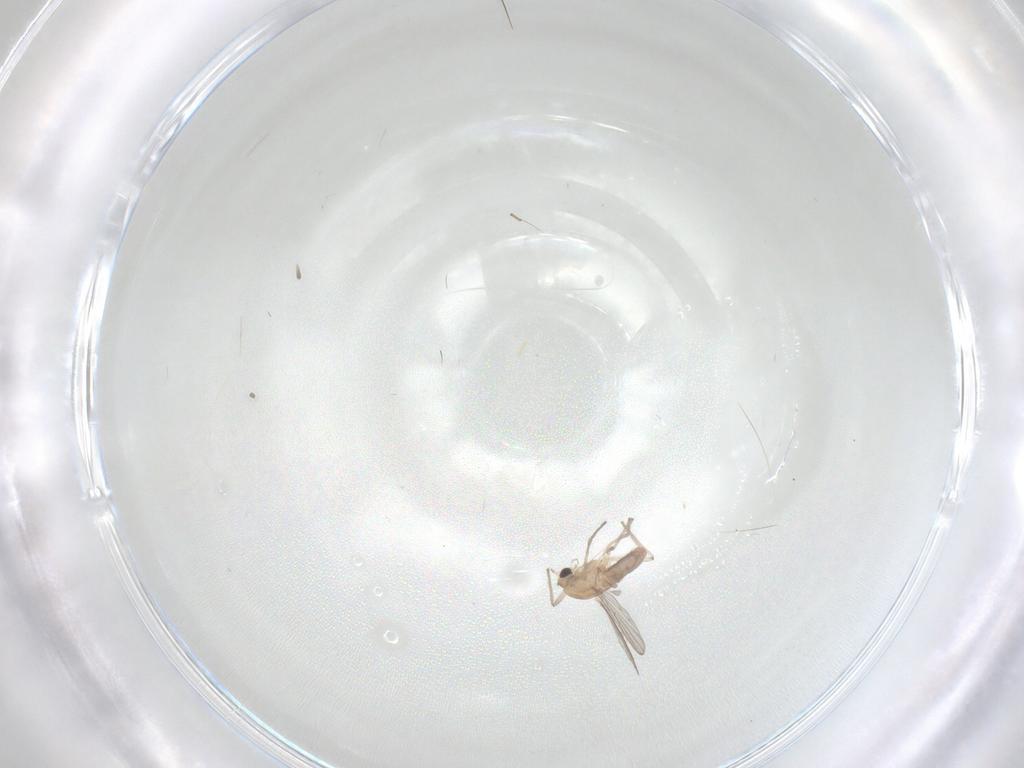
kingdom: Animalia
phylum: Arthropoda
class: Insecta
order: Diptera
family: Chironomidae
